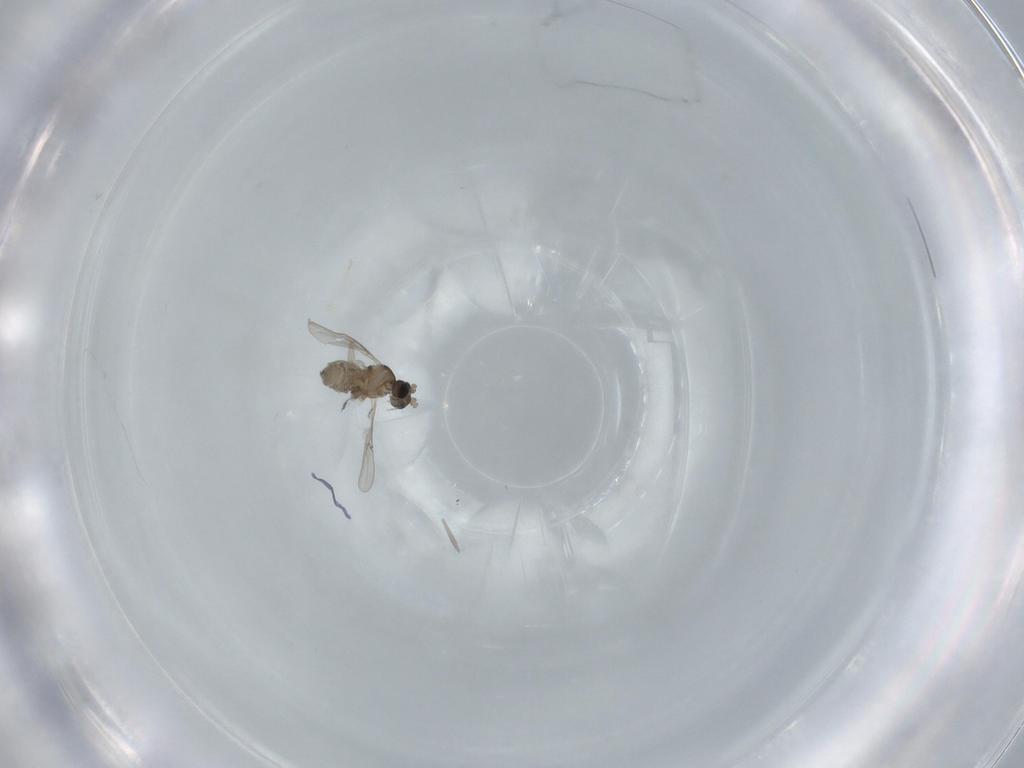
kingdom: Animalia
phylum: Arthropoda
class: Insecta
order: Diptera
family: Cecidomyiidae
